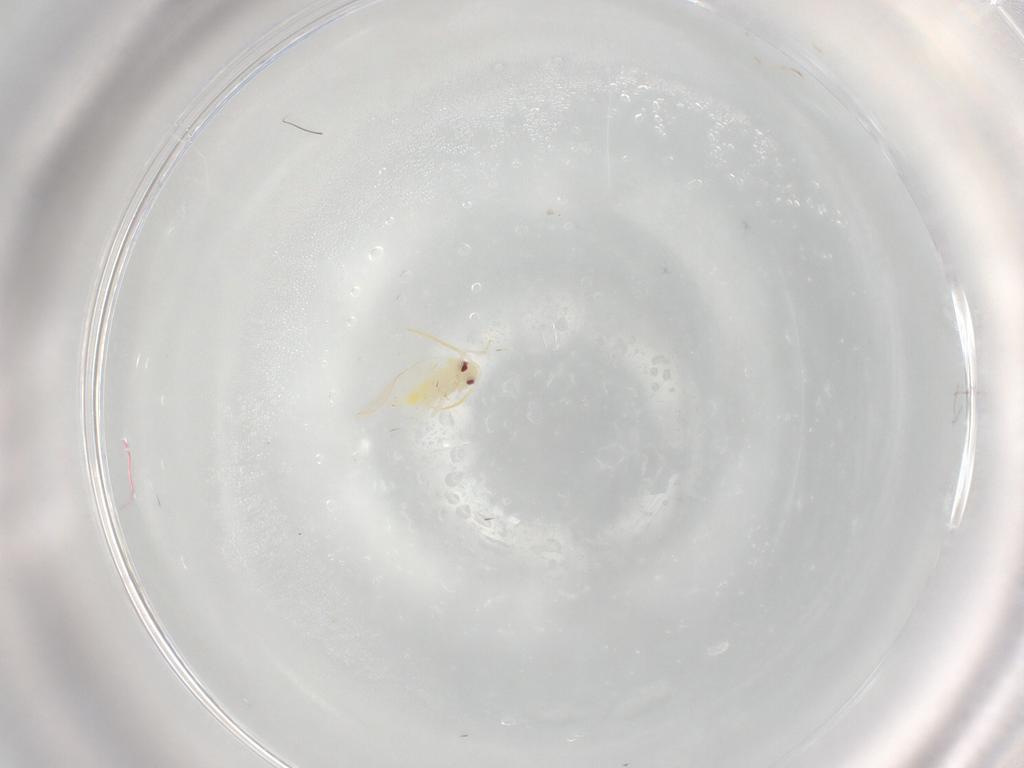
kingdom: Animalia
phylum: Arthropoda
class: Insecta
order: Hemiptera
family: Aleyrodidae
